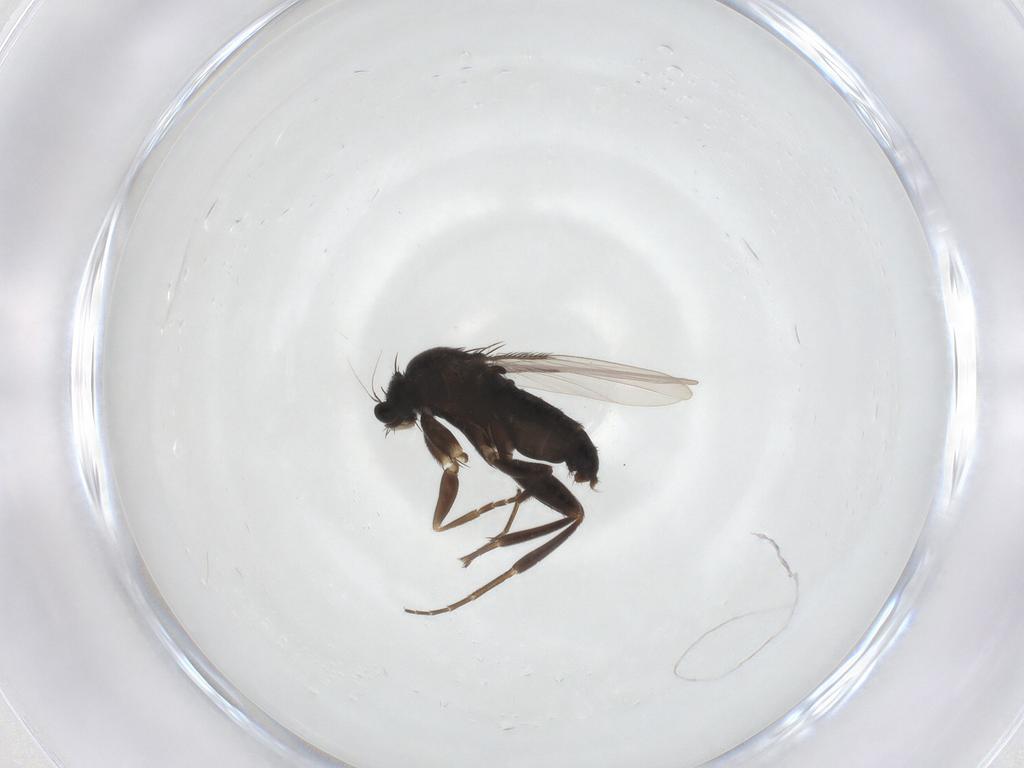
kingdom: Animalia
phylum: Arthropoda
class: Insecta
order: Diptera
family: Phoridae
